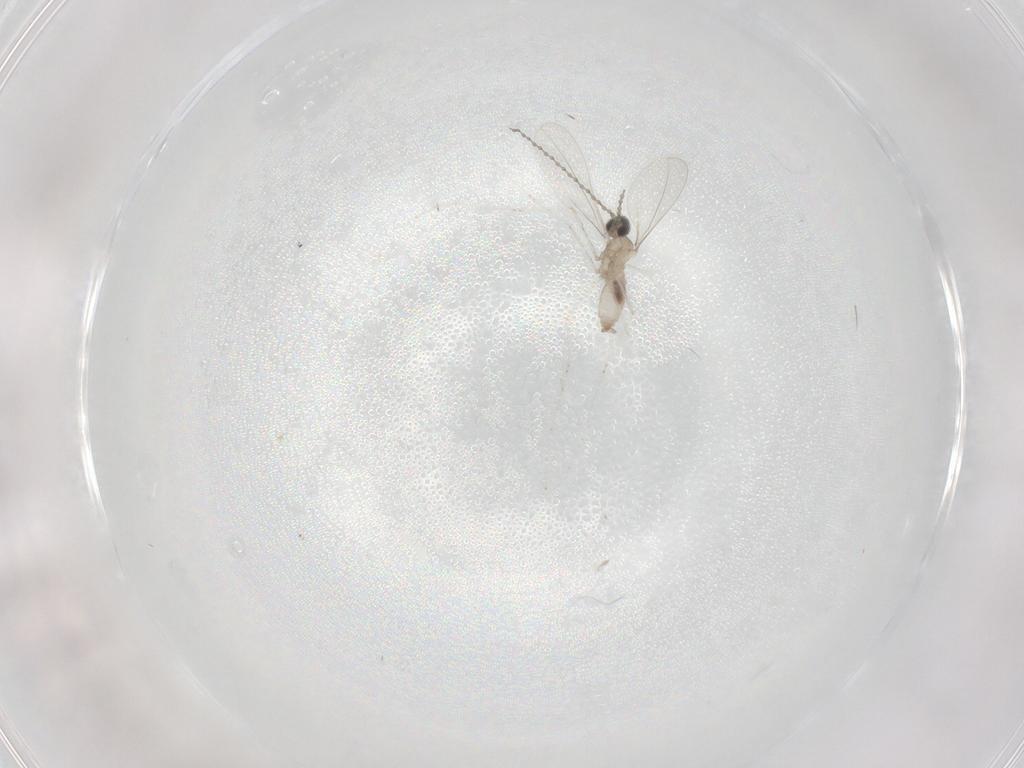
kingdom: Animalia
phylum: Arthropoda
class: Insecta
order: Diptera
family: Cecidomyiidae
